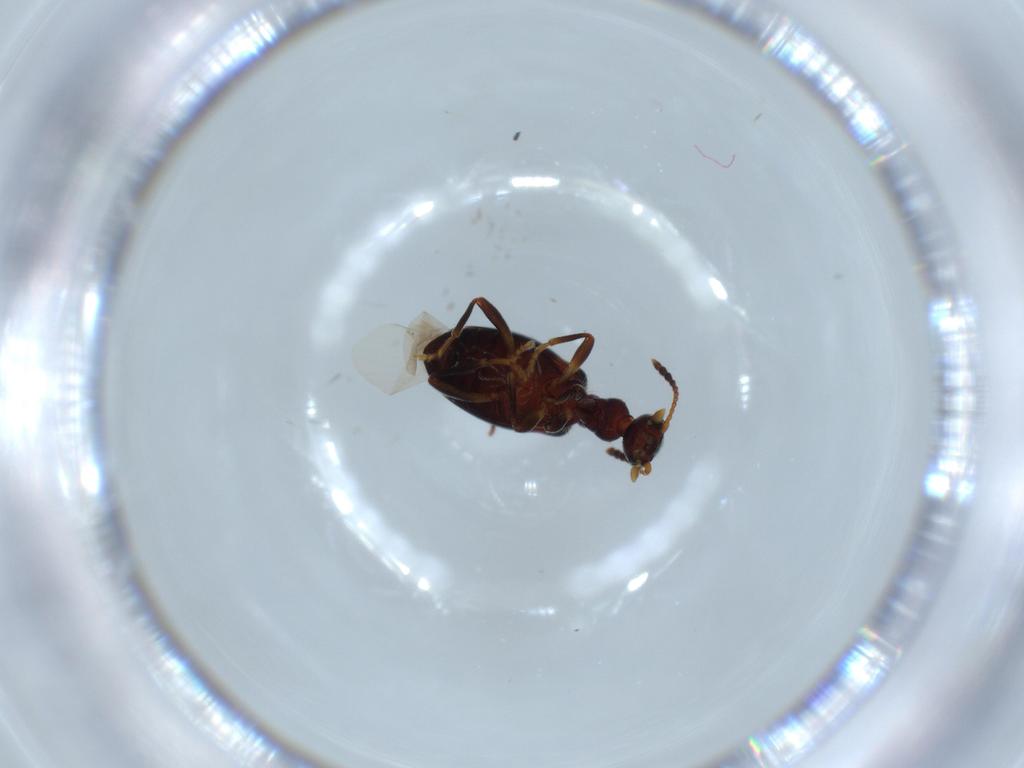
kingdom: Animalia
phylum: Arthropoda
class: Insecta
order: Coleoptera
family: Anthicidae
